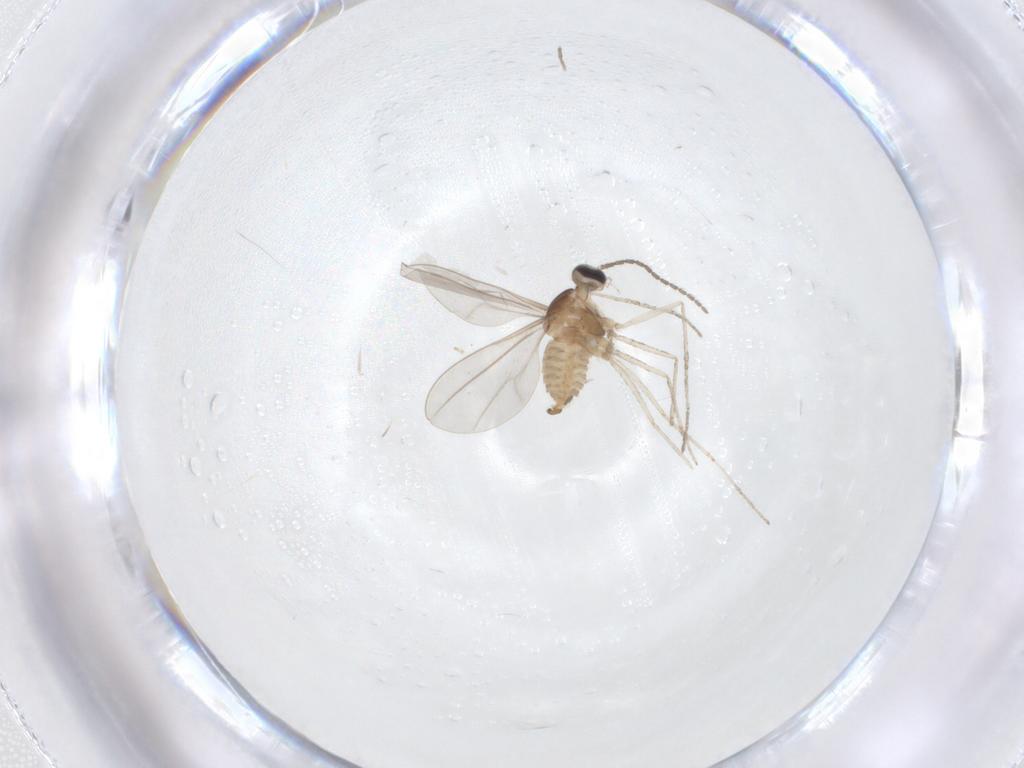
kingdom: Animalia
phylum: Arthropoda
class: Insecta
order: Diptera
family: Cecidomyiidae
